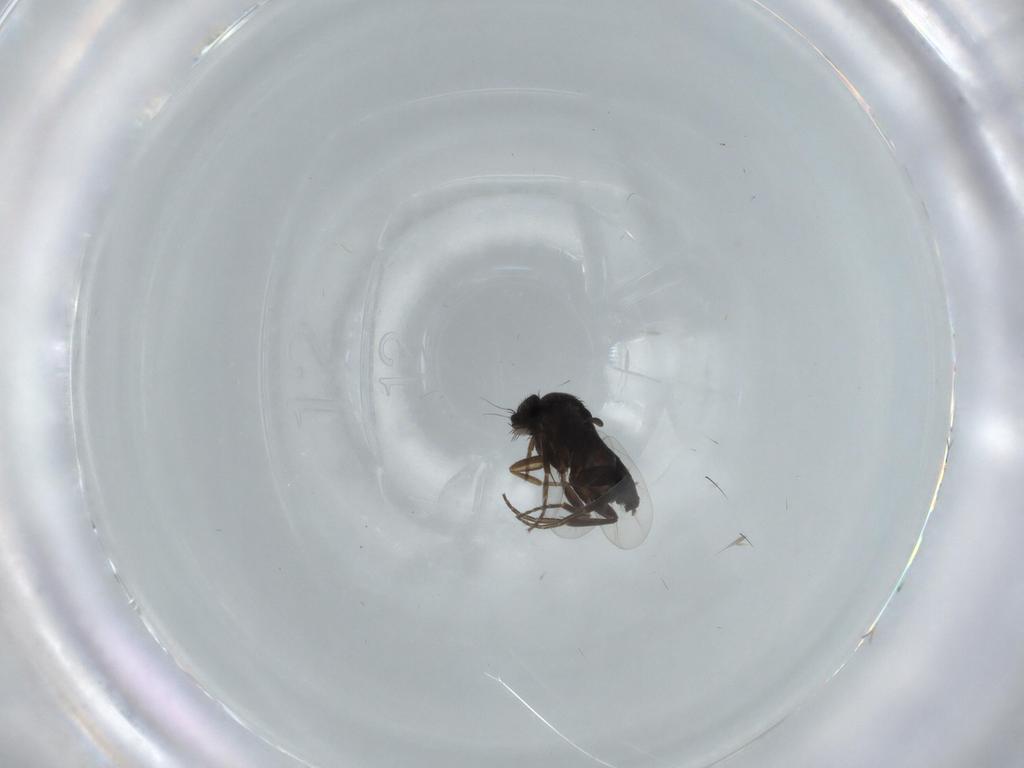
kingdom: Animalia
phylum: Arthropoda
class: Insecta
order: Diptera
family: Phoridae
